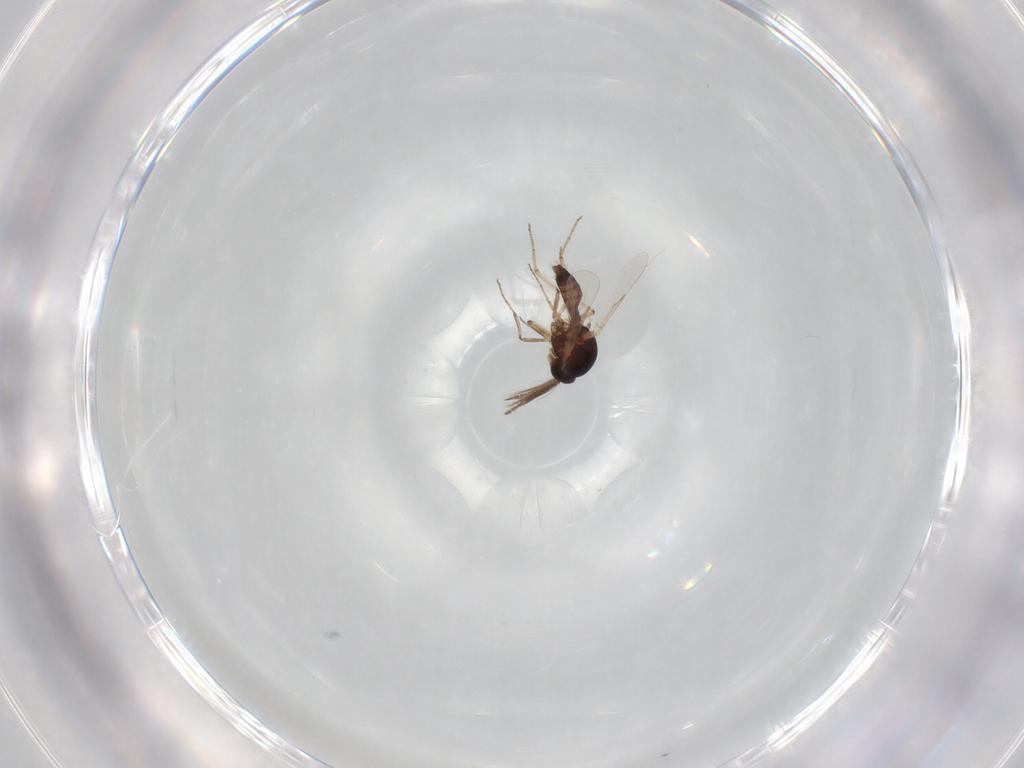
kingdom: Animalia
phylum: Arthropoda
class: Insecta
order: Diptera
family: Ceratopogonidae
